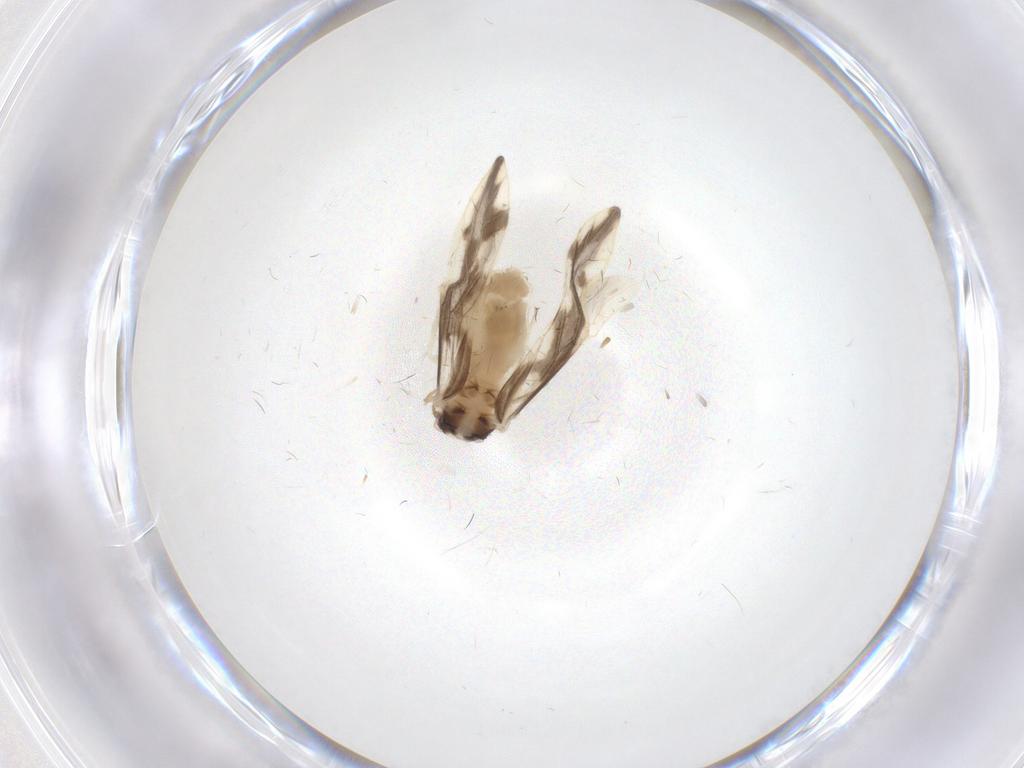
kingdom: Animalia
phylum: Arthropoda
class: Insecta
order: Psocodea
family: Caeciliusidae
